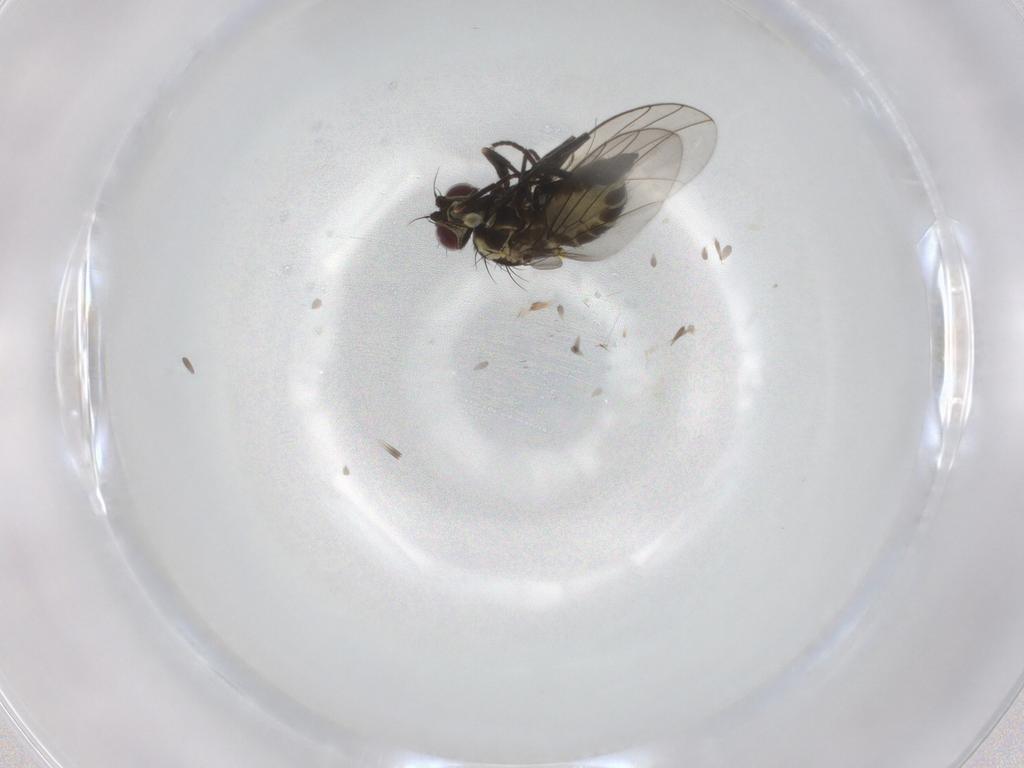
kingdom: Animalia
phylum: Arthropoda
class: Insecta
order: Diptera
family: Agromyzidae
